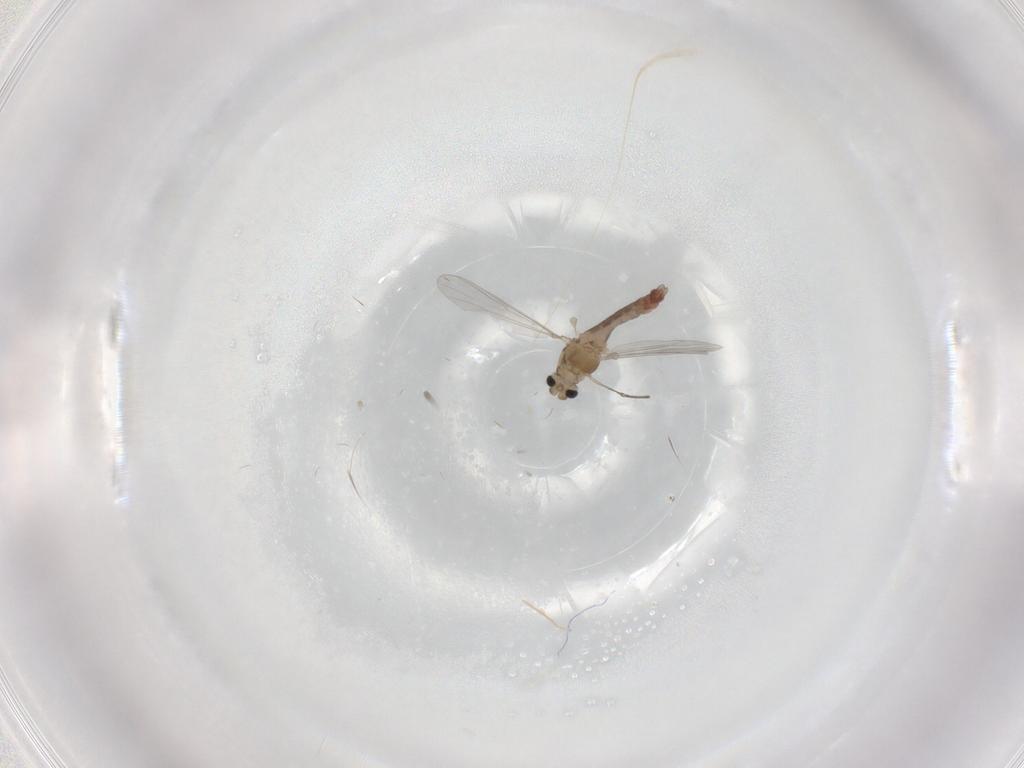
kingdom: Animalia
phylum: Arthropoda
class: Insecta
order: Diptera
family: Chironomidae
